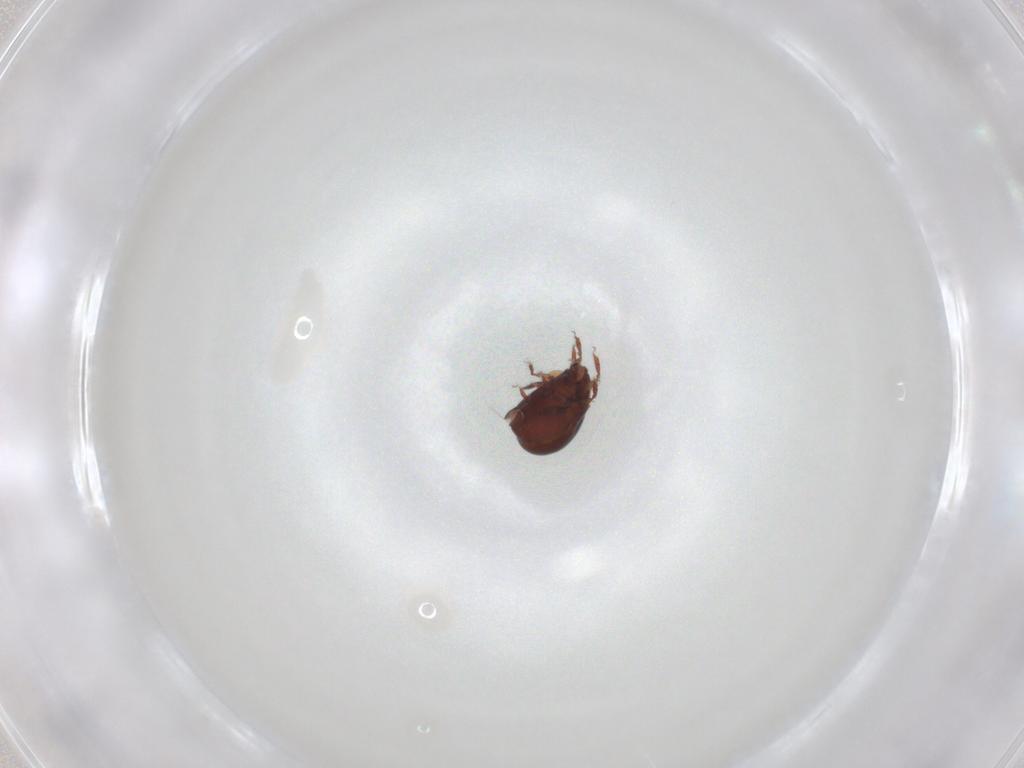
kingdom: Animalia
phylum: Arthropoda
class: Arachnida
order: Sarcoptiformes
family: Humerobatidae
